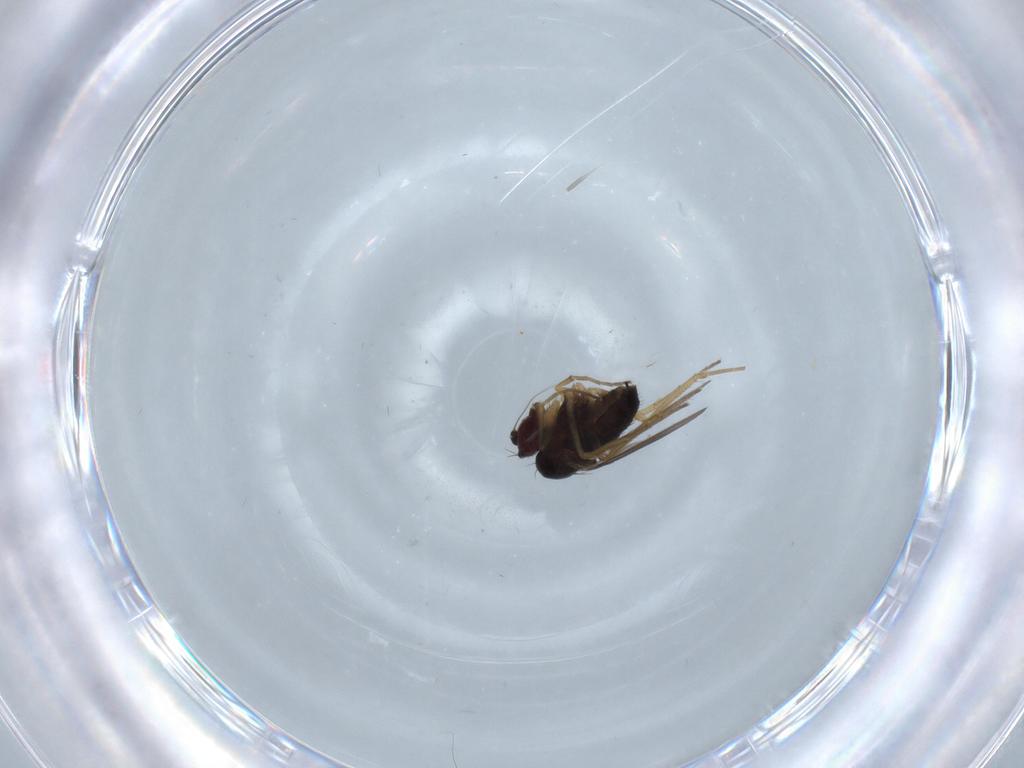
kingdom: Animalia
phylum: Arthropoda
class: Insecta
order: Diptera
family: Dolichopodidae
